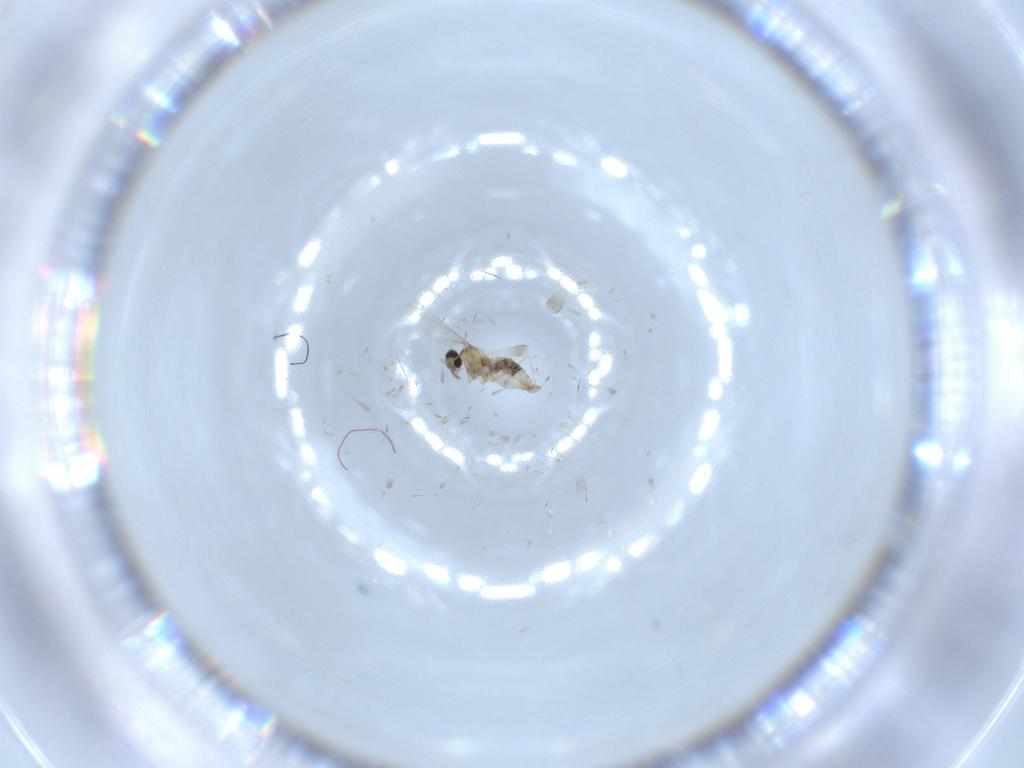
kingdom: Animalia
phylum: Arthropoda
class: Insecta
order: Diptera
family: Cecidomyiidae
